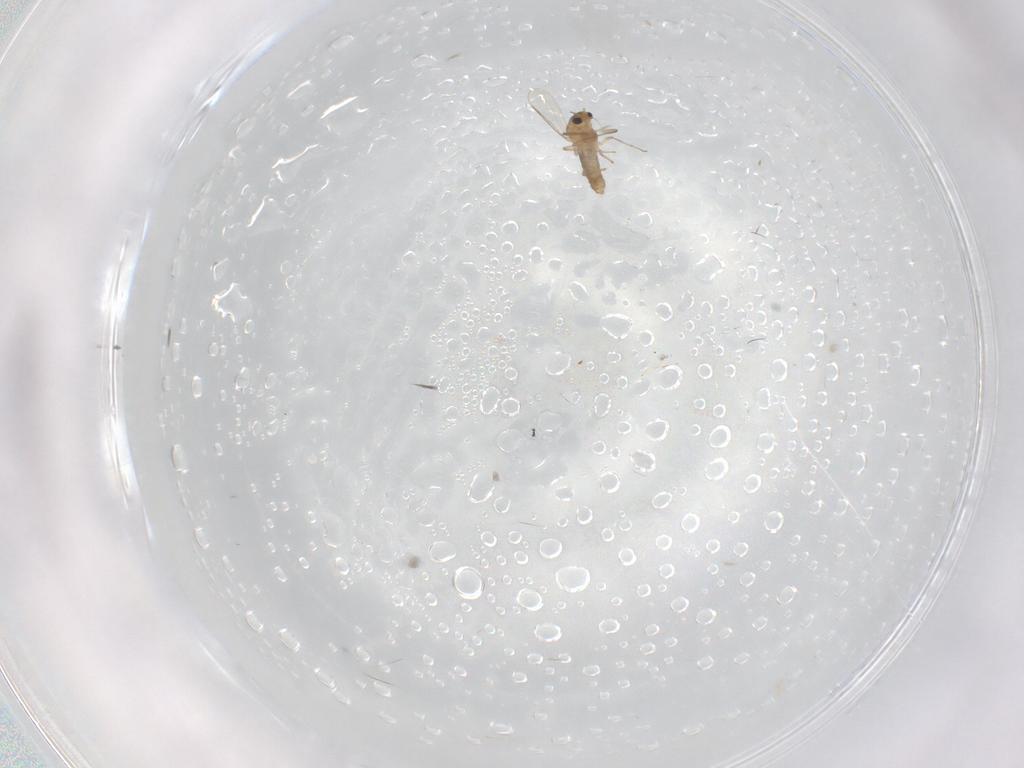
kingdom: Animalia
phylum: Arthropoda
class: Insecta
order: Diptera
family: Chironomidae
